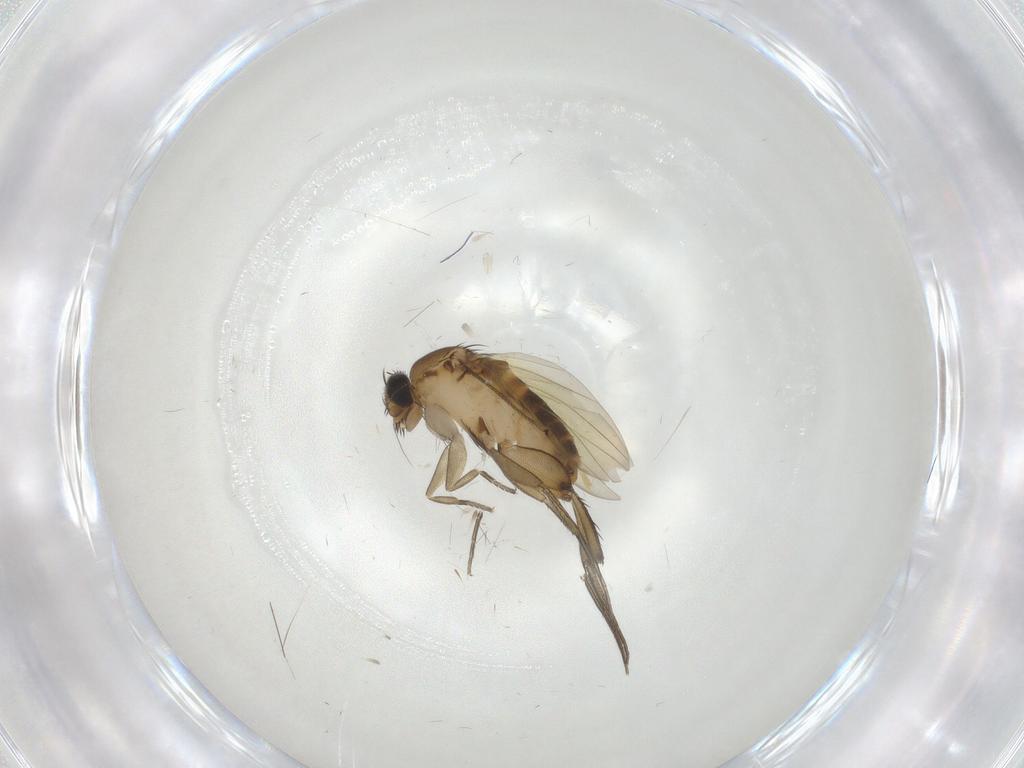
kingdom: Animalia
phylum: Arthropoda
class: Insecta
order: Diptera
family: Phoridae
